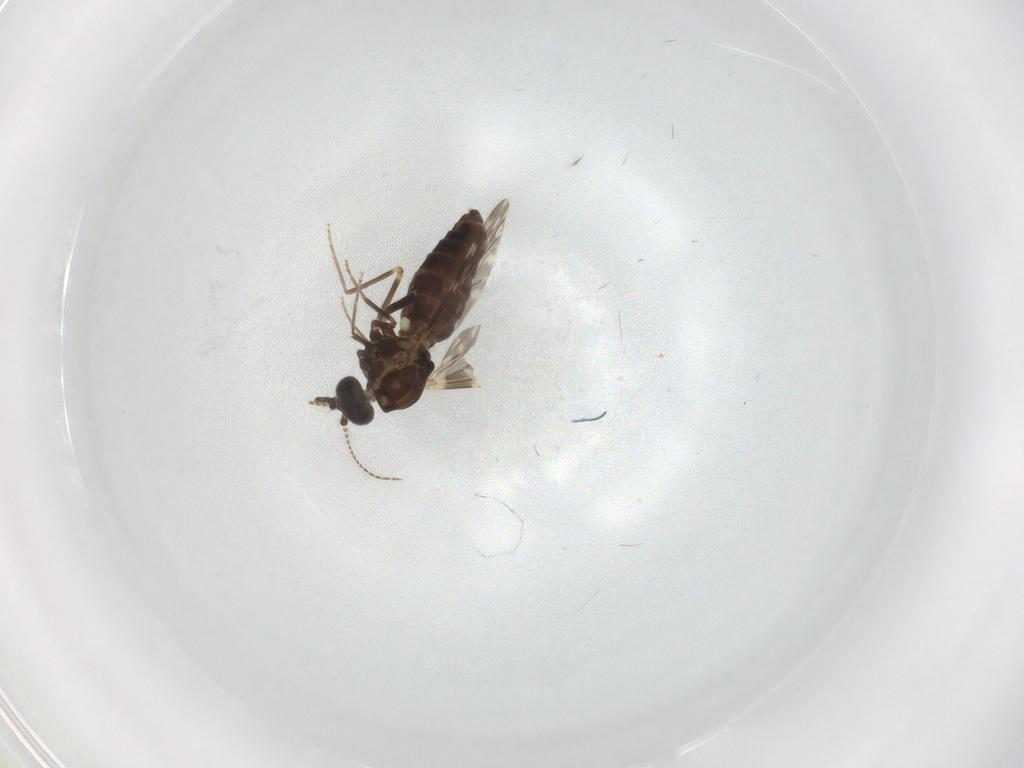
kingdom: Animalia
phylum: Arthropoda
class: Insecta
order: Diptera
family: Ceratopogonidae
